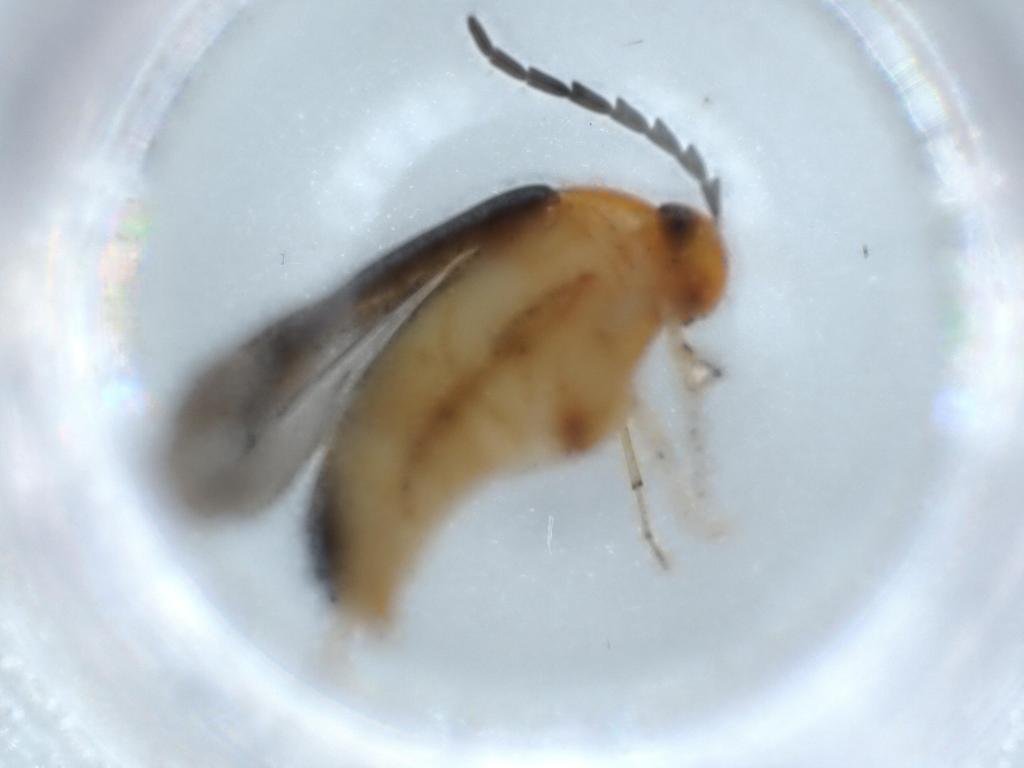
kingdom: Animalia
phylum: Arthropoda
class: Insecta
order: Coleoptera
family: Mordellidae
